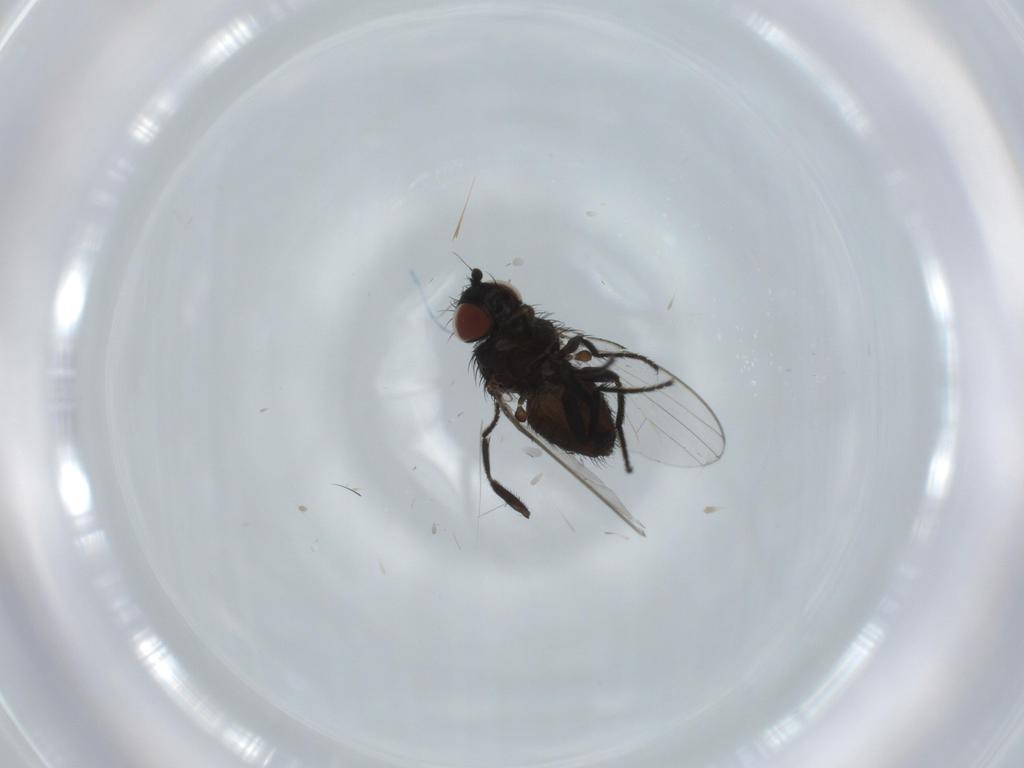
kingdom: Animalia
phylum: Arthropoda
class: Insecta
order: Diptera
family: Milichiidae
